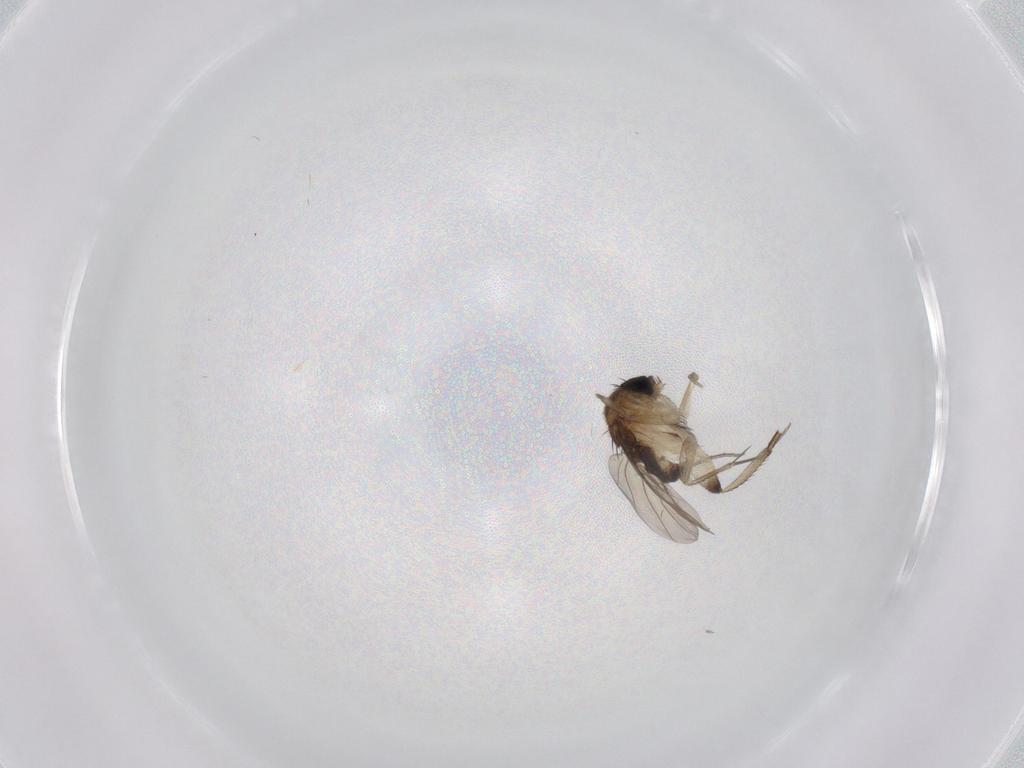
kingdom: Animalia
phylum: Arthropoda
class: Insecta
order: Diptera
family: Phoridae
